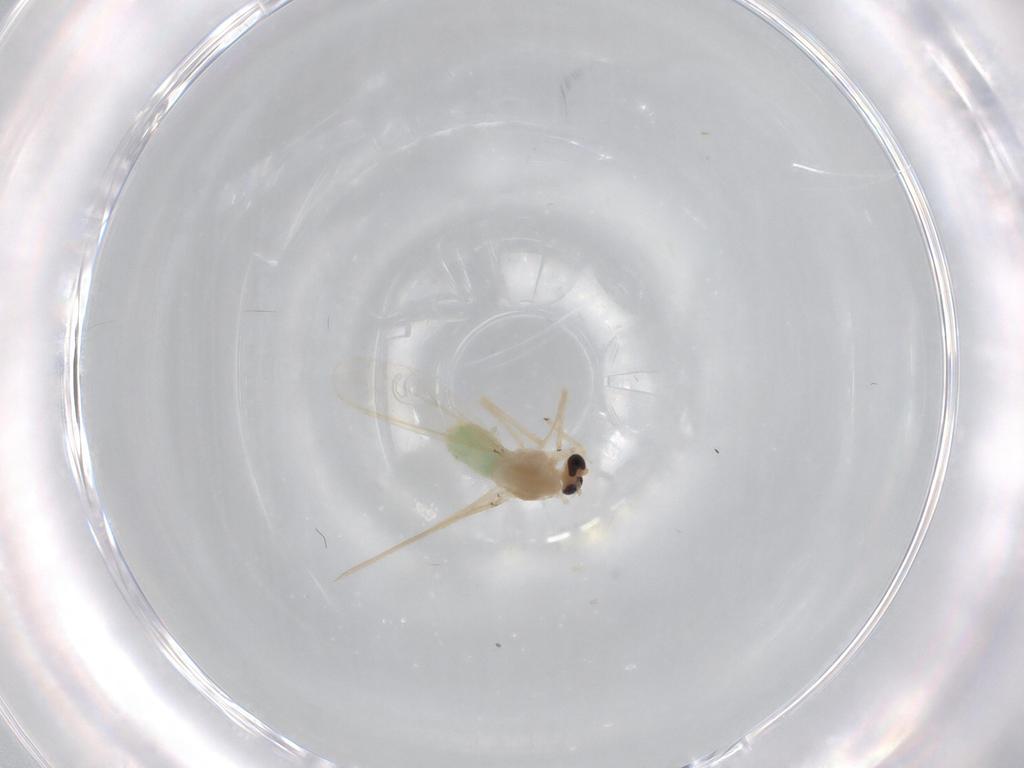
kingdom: Animalia
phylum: Arthropoda
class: Insecta
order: Diptera
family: Chironomidae
